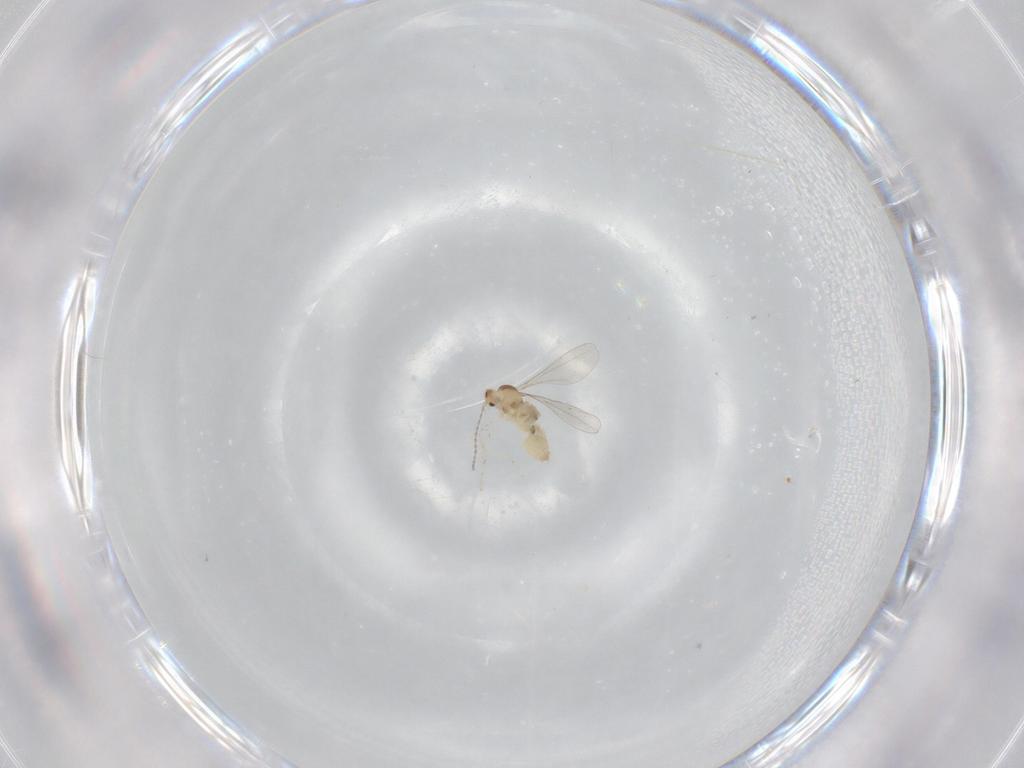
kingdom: Animalia
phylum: Arthropoda
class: Insecta
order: Diptera
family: Cecidomyiidae
